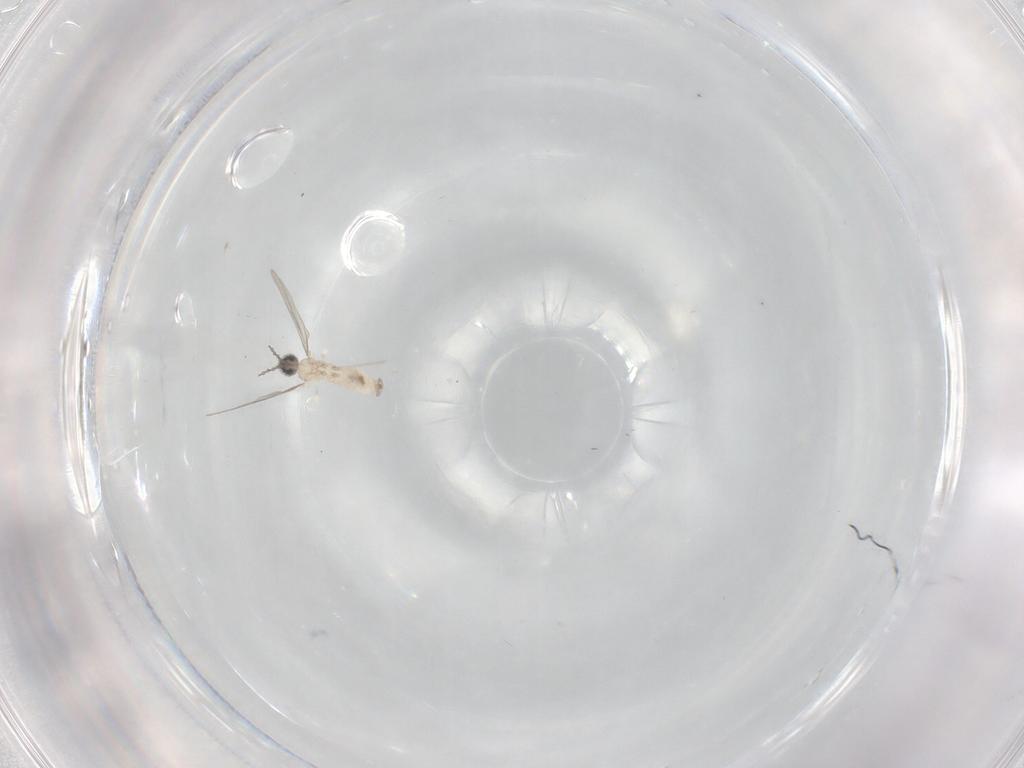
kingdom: Animalia
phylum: Arthropoda
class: Insecta
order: Diptera
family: Cecidomyiidae
